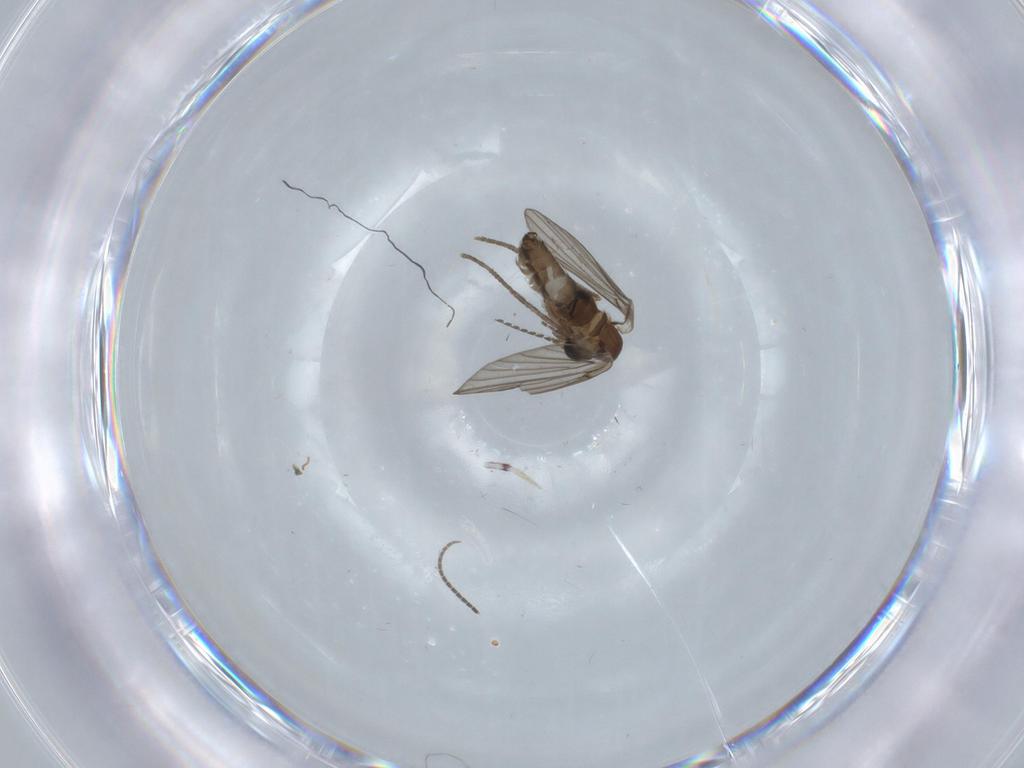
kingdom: Animalia
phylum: Arthropoda
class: Insecta
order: Diptera
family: Psychodidae
